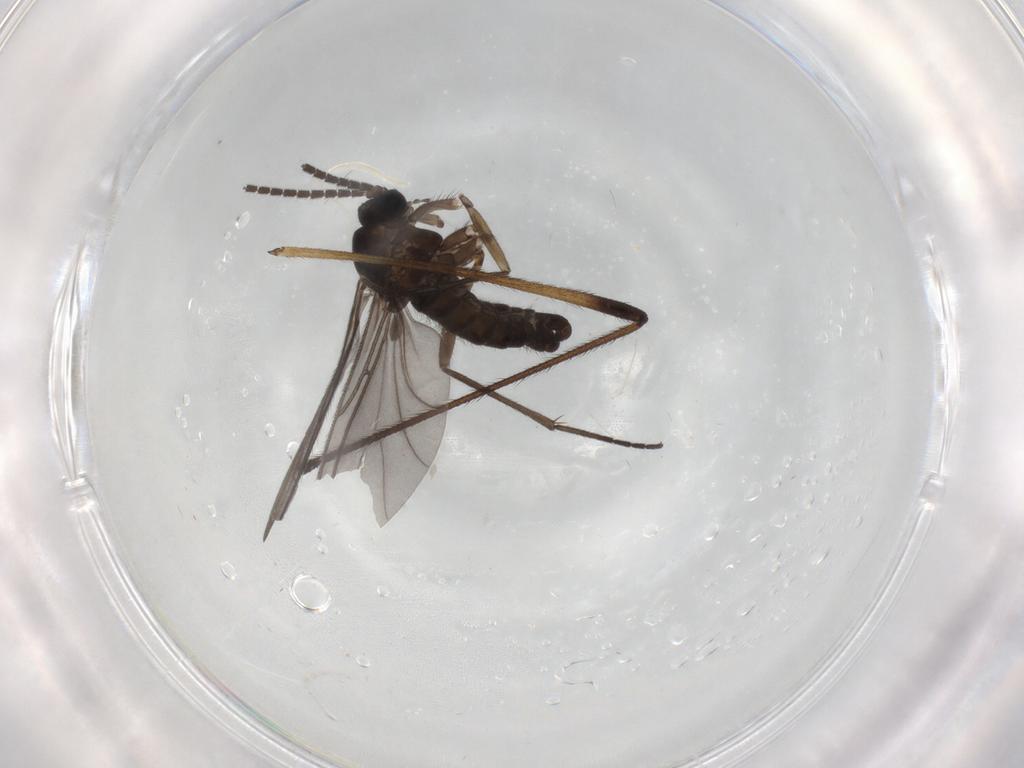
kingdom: Animalia
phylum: Arthropoda
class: Insecta
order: Diptera
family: Sciaridae
